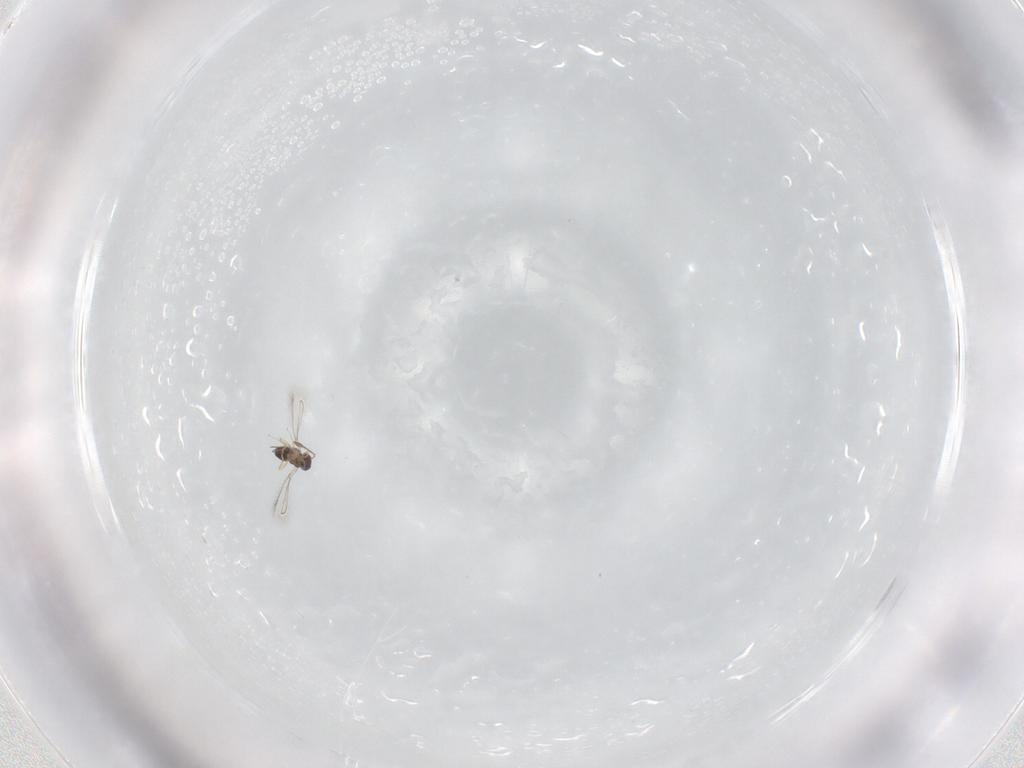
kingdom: Animalia
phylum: Arthropoda
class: Insecta
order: Hymenoptera
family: Mymaridae
